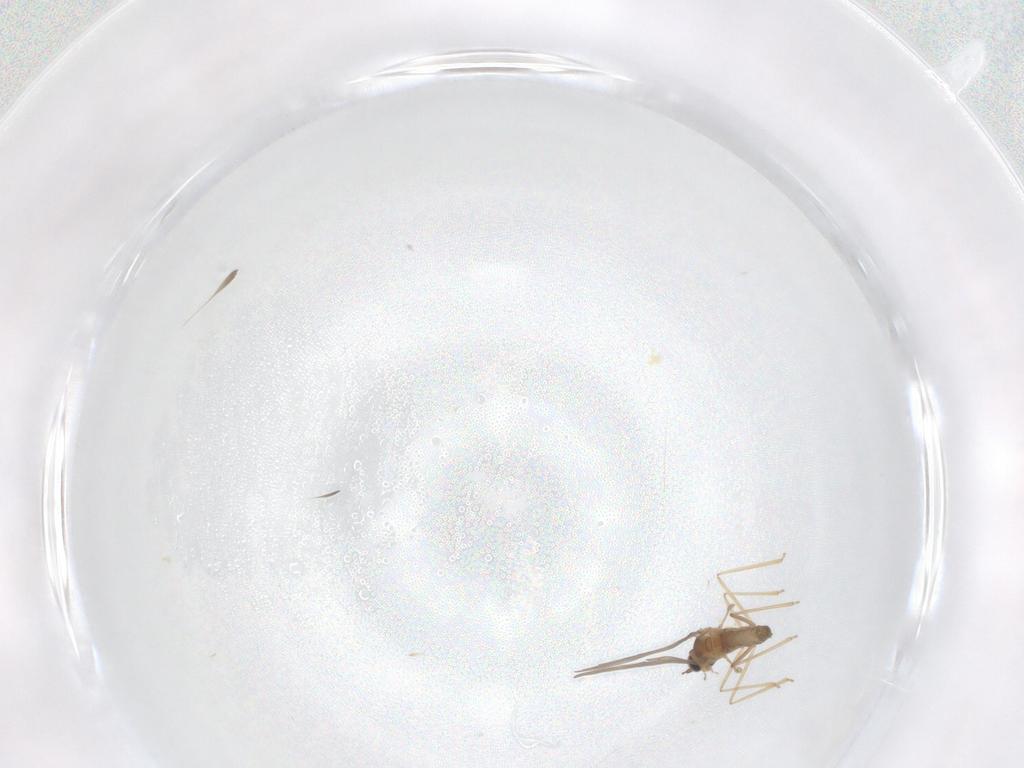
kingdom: Animalia
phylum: Arthropoda
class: Insecta
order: Diptera
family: Cecidomyiidae
